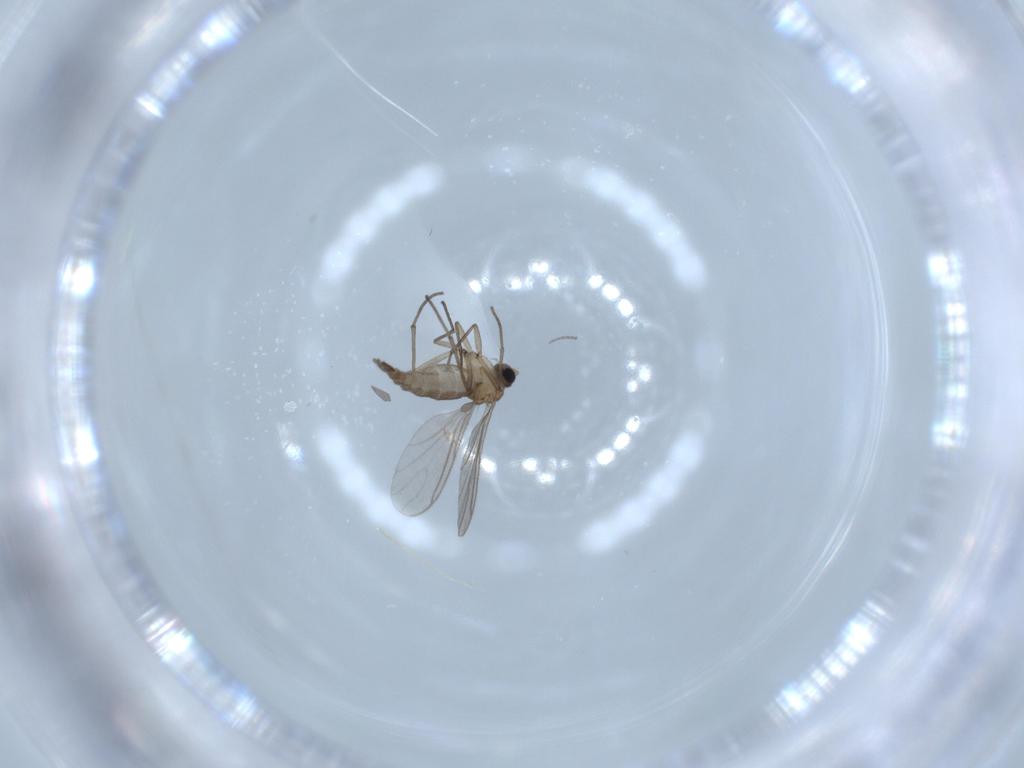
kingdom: Animalia
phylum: Arthropoda
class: Insecta
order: Diptera
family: Sciaridae
